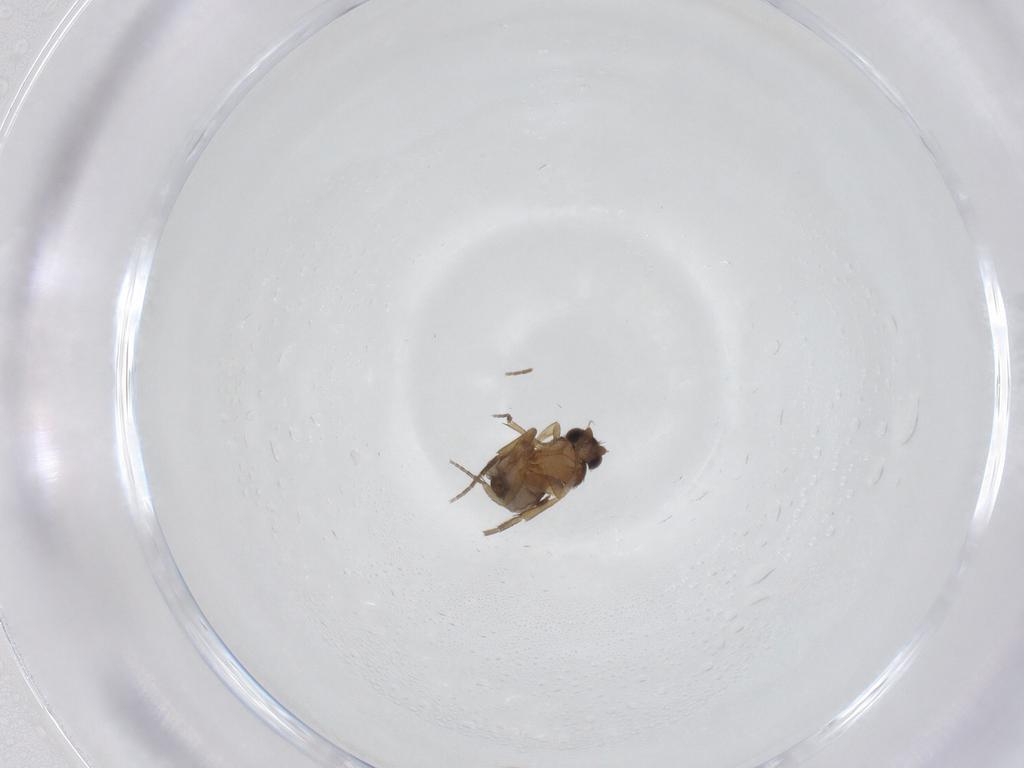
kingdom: Animalia
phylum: Arthropoda
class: Insecta
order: Diptera
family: Phoridae
